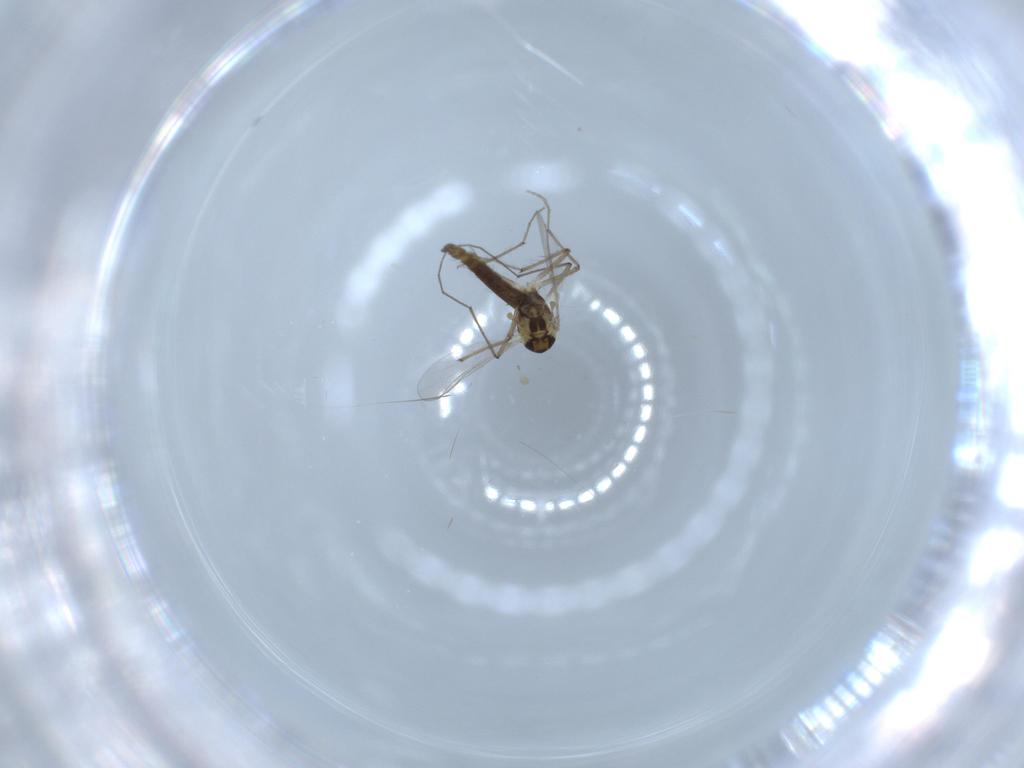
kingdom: Animalia
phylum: Arthropoda
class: Insecta
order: Diptera
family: Chironomidae
